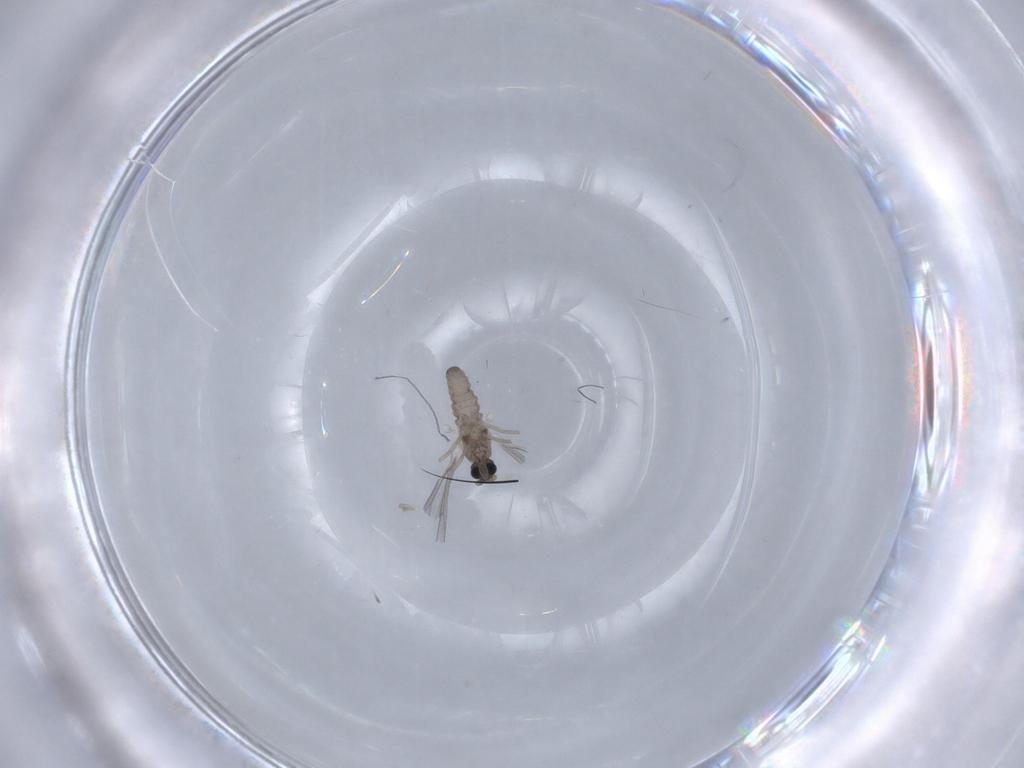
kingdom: Animalia
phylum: Arthropoda
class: Insecta
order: Diptera
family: Cecidomyiidae
